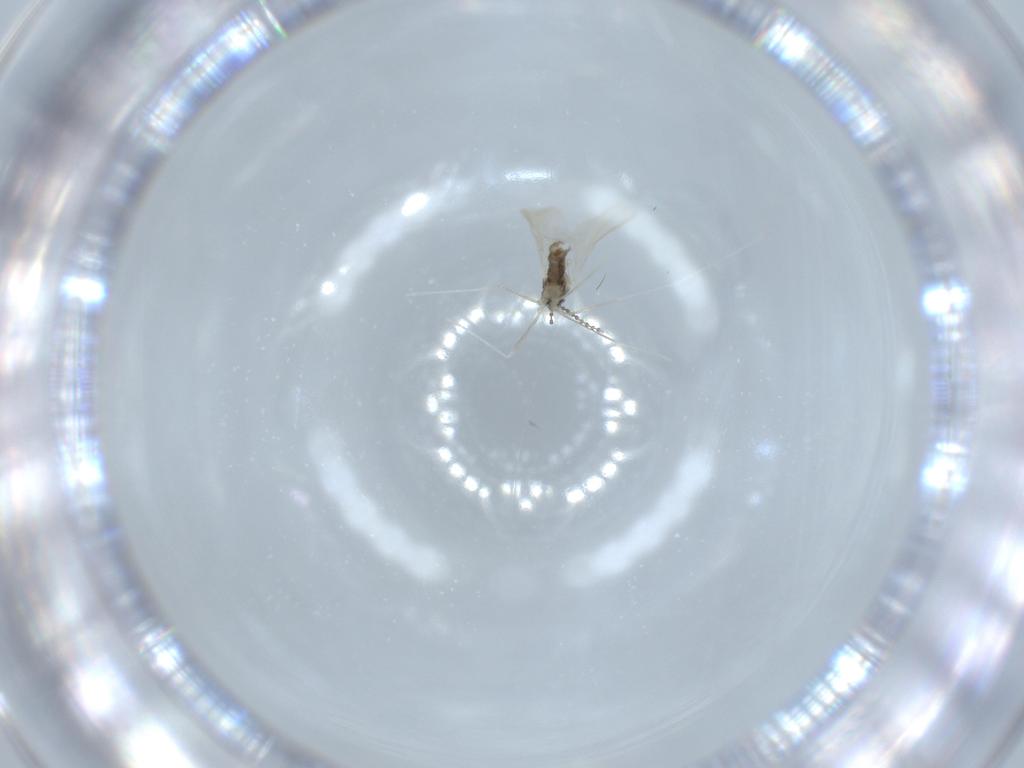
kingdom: Animalia
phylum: Arthropoda
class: Insecta
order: Diptera
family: Cecidomyiidae
